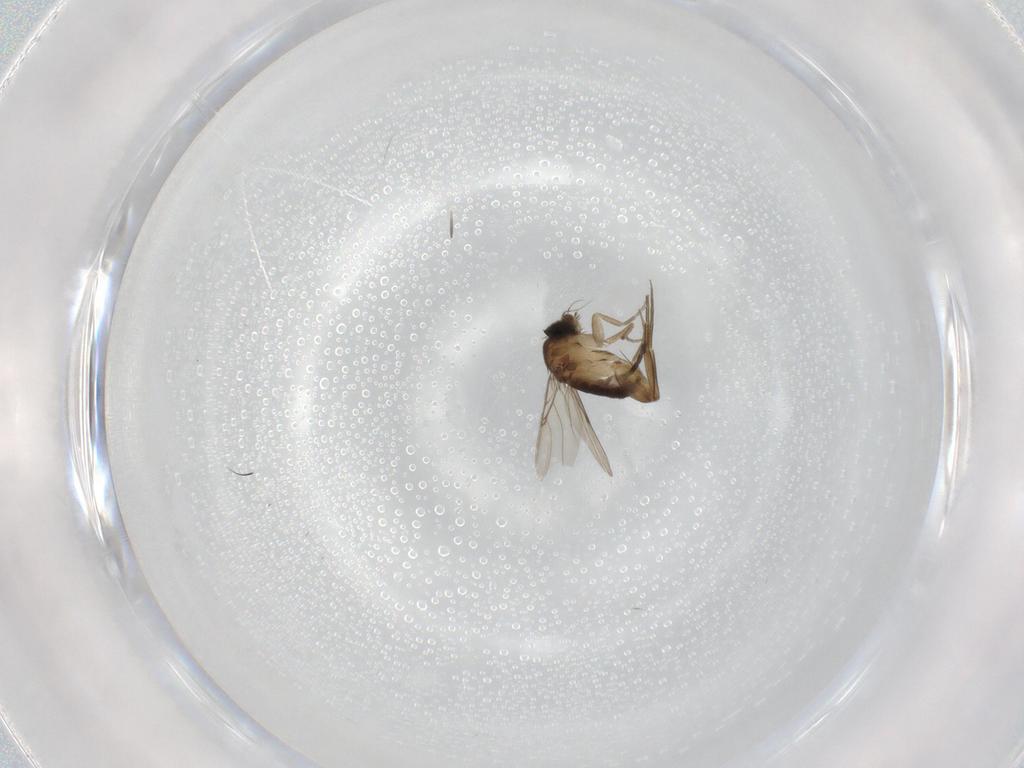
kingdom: Animalia
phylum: Arthropoda
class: Insecta
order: Diptera
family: Phoridae
